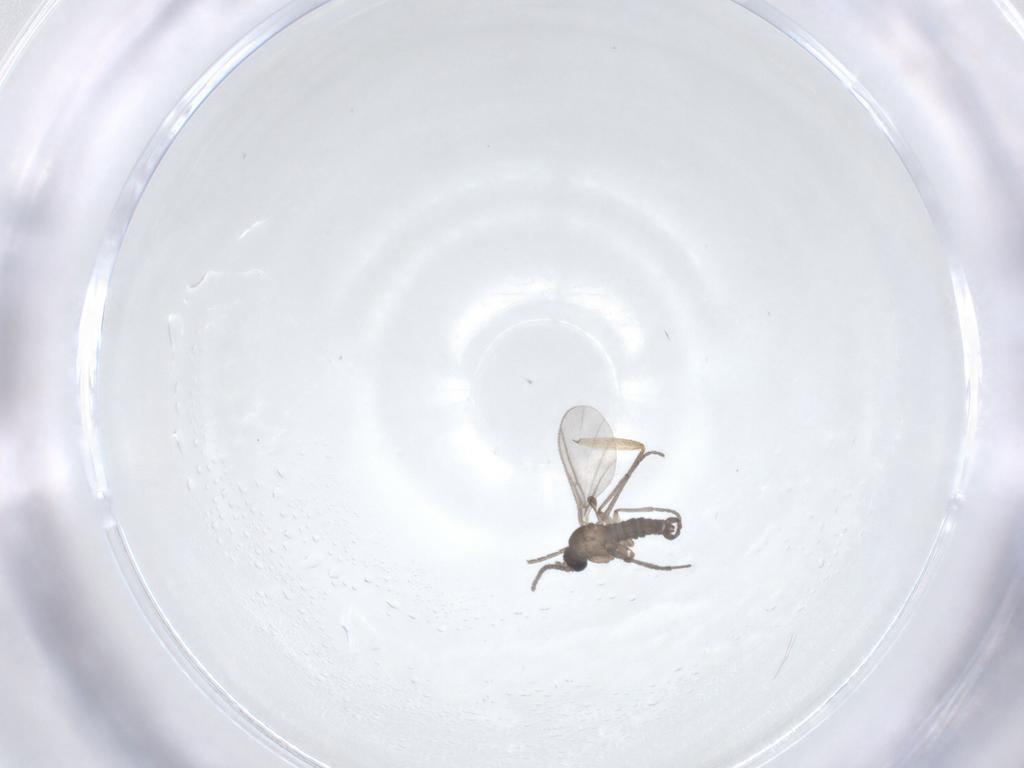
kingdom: Animalia
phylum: Arthropoda
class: Insecta
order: Diptera
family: Sciaridae
